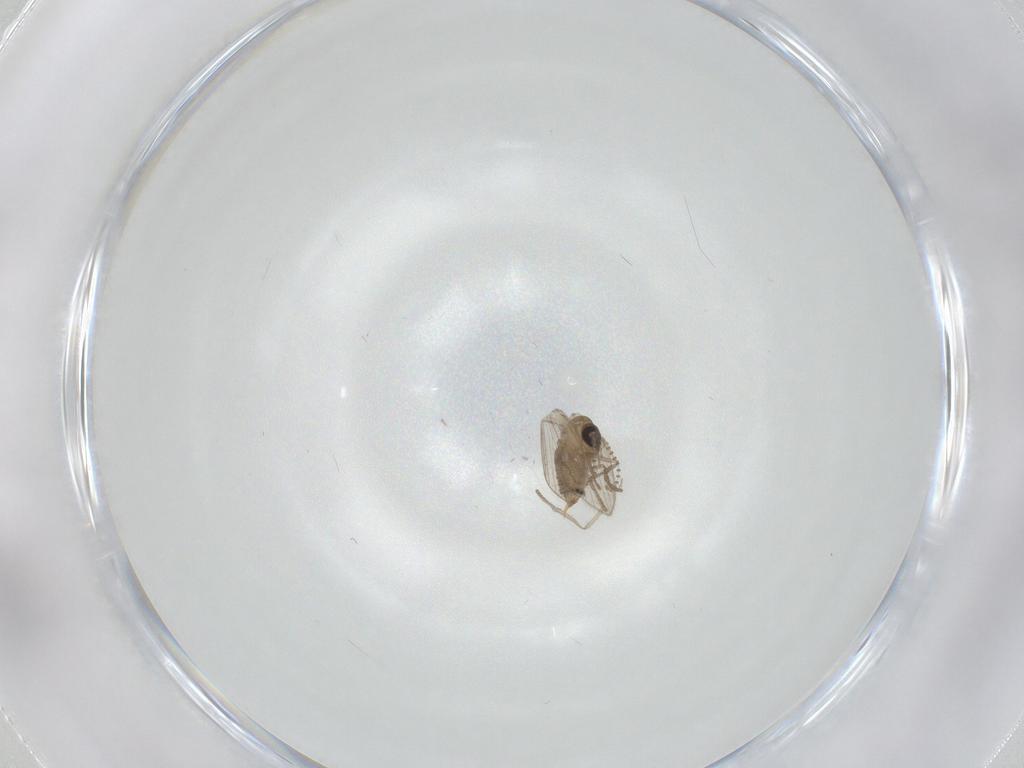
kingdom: Animalia
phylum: Arthropoda
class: Insecta
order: Diptera
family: Psychodidae
